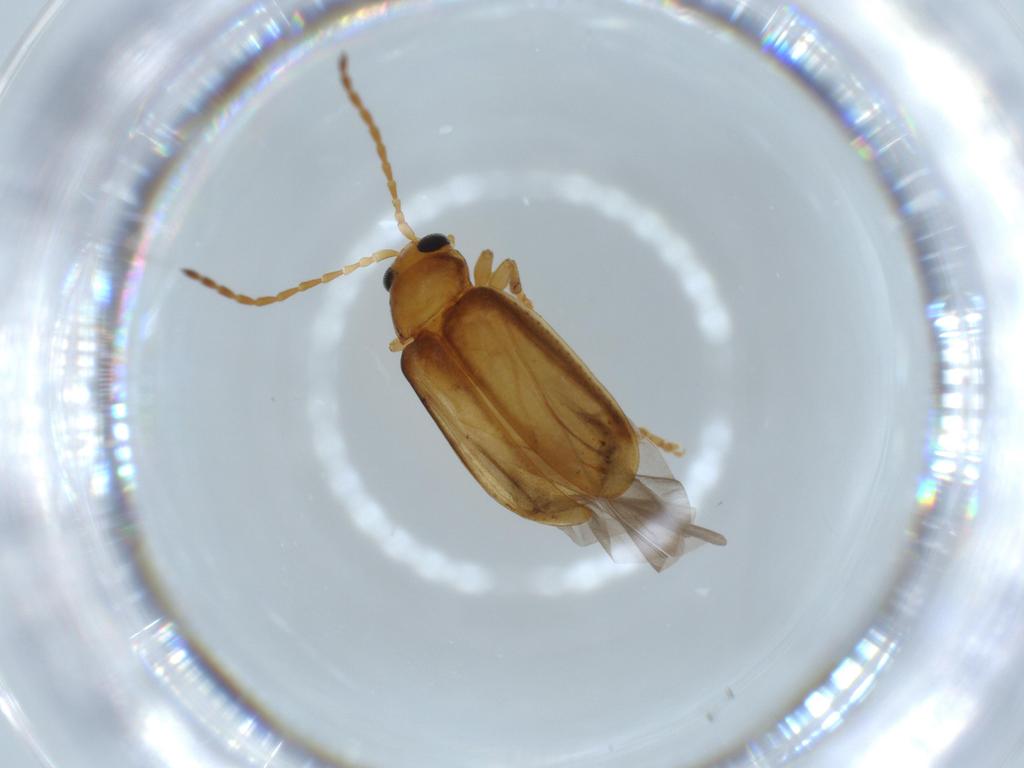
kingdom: Animalia
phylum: Arthropoda
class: Insecta
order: Coleoptera
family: Chrysomelidae
